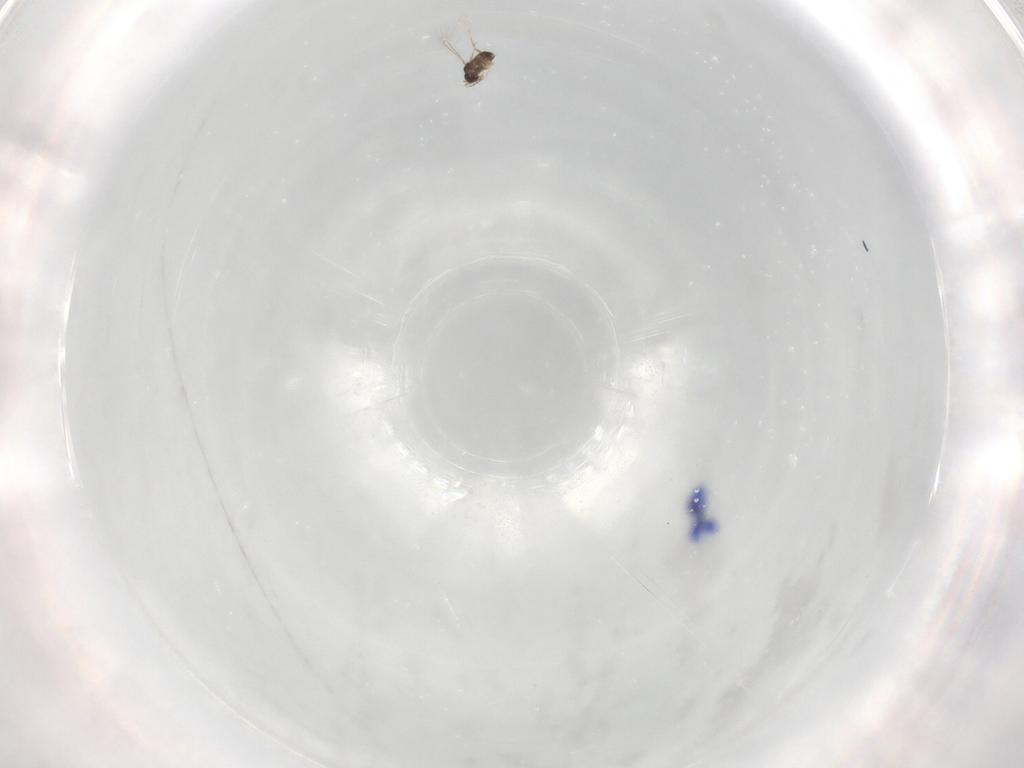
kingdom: Animalia
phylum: Arthropoda
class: Insecta
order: Hymenoptera
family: Mymaridae
